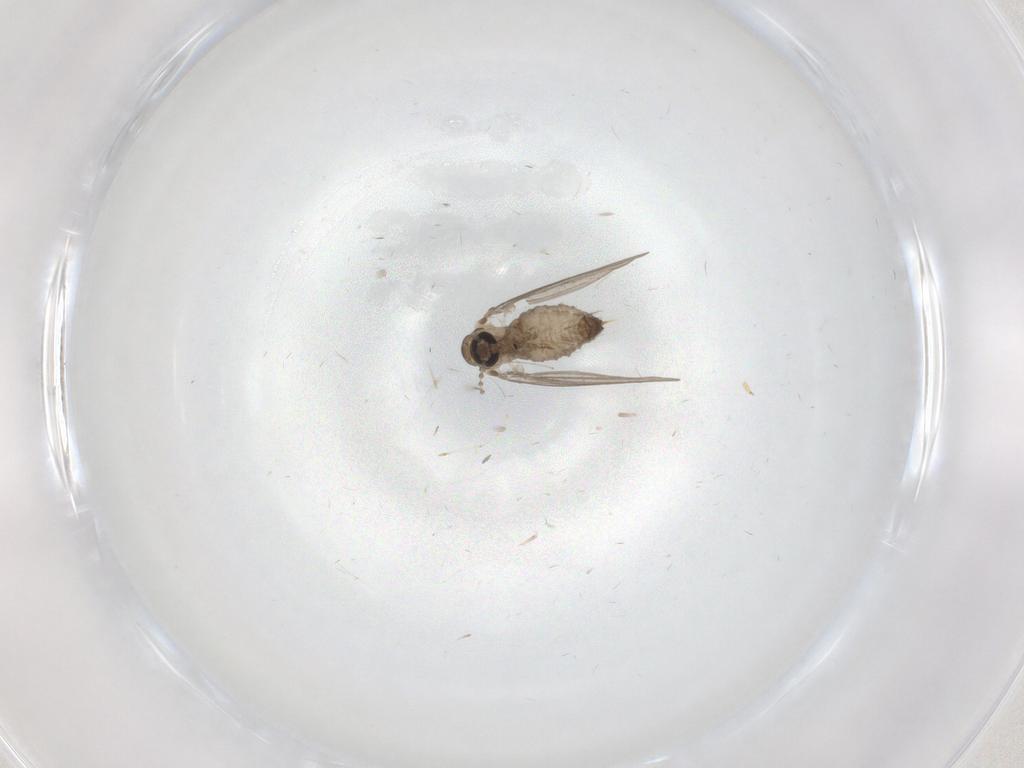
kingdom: Animalia
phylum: Arthropoda
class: Insecta
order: Diptera
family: Psychodidae
